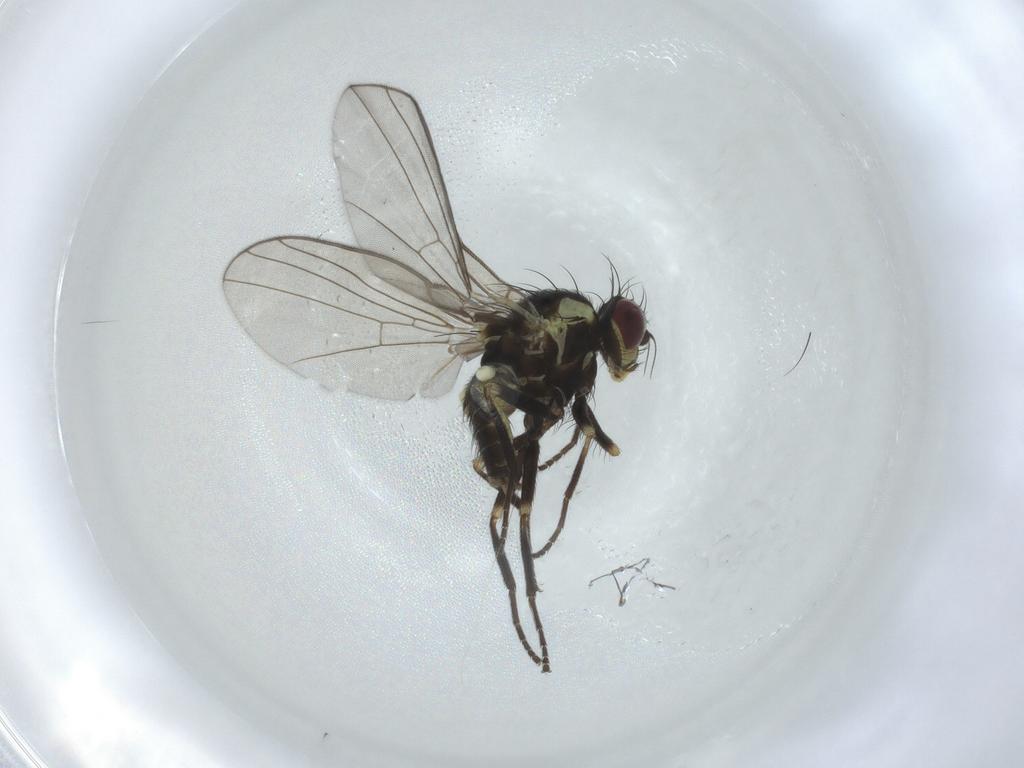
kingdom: Animalia
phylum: Arthropoda
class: Insecta
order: Diptera
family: Agromyzidae
